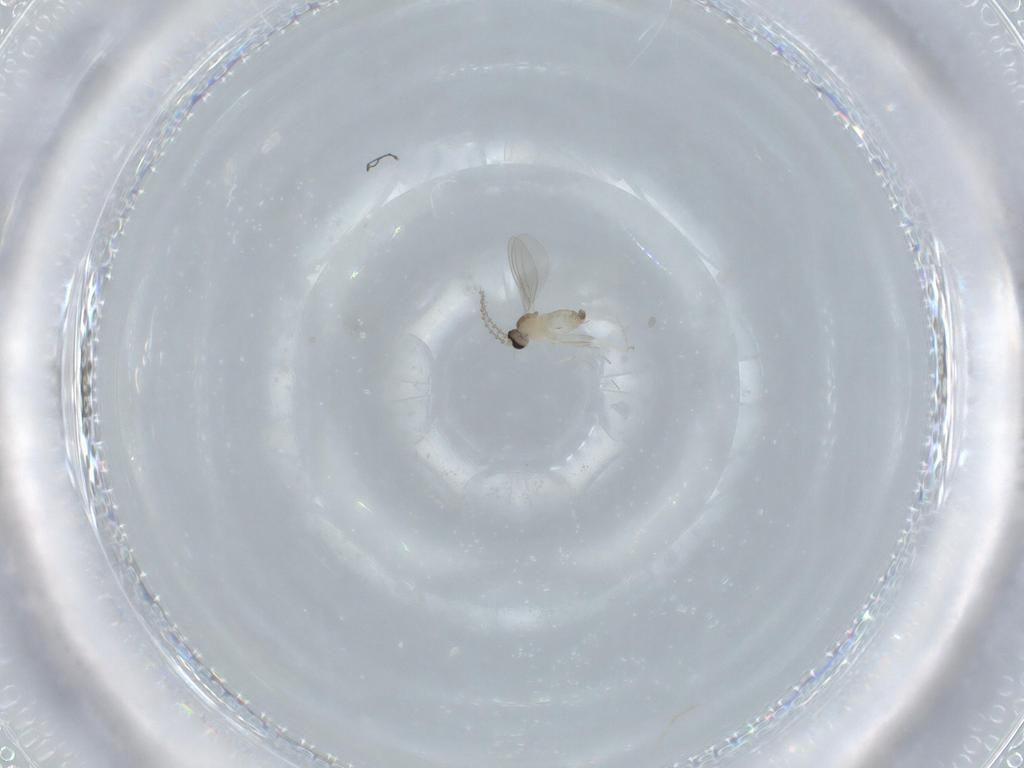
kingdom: Animalia
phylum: Arthropoda
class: Insecta
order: Diptera
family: Cecidomyiidae
